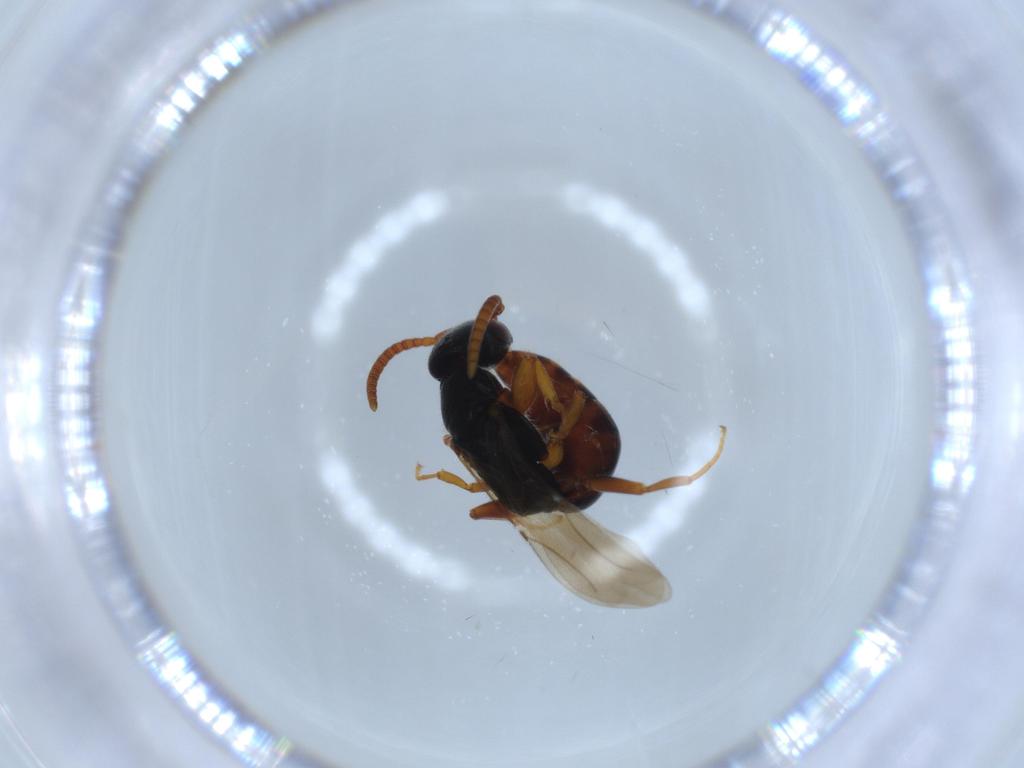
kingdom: Animalia
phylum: Arthropoda
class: Insecta
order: Hymenoptera
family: Bethylidae
